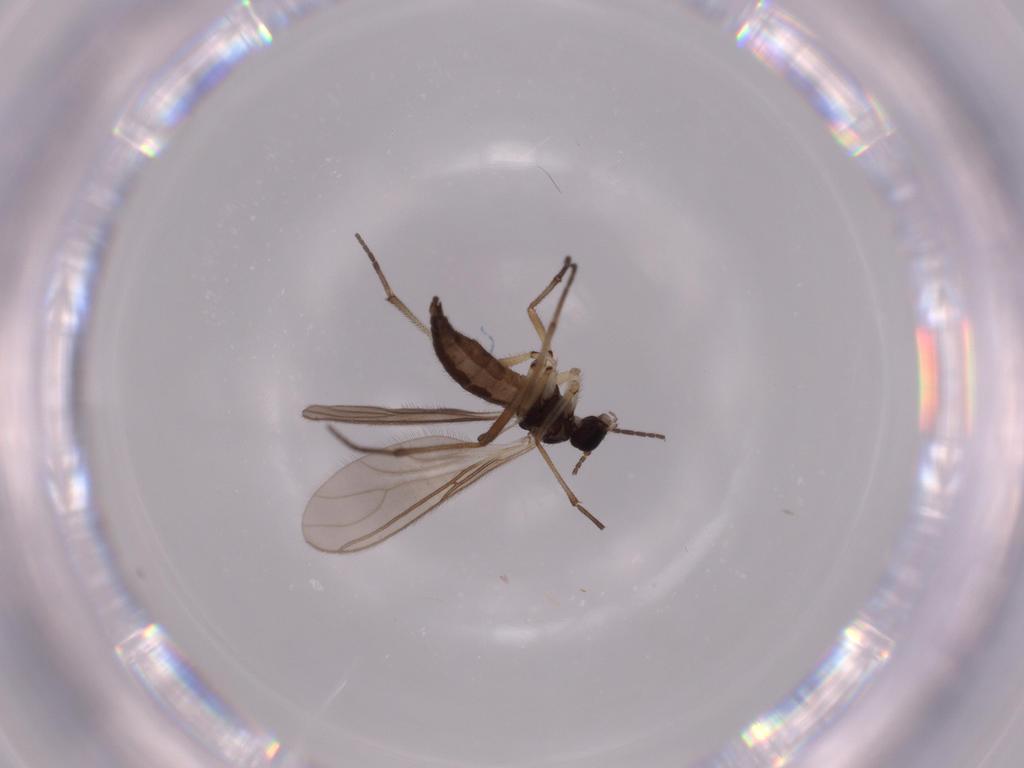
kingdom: Animalia
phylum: Arthropoda
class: Insecta
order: Diptera
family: Sciaridae
